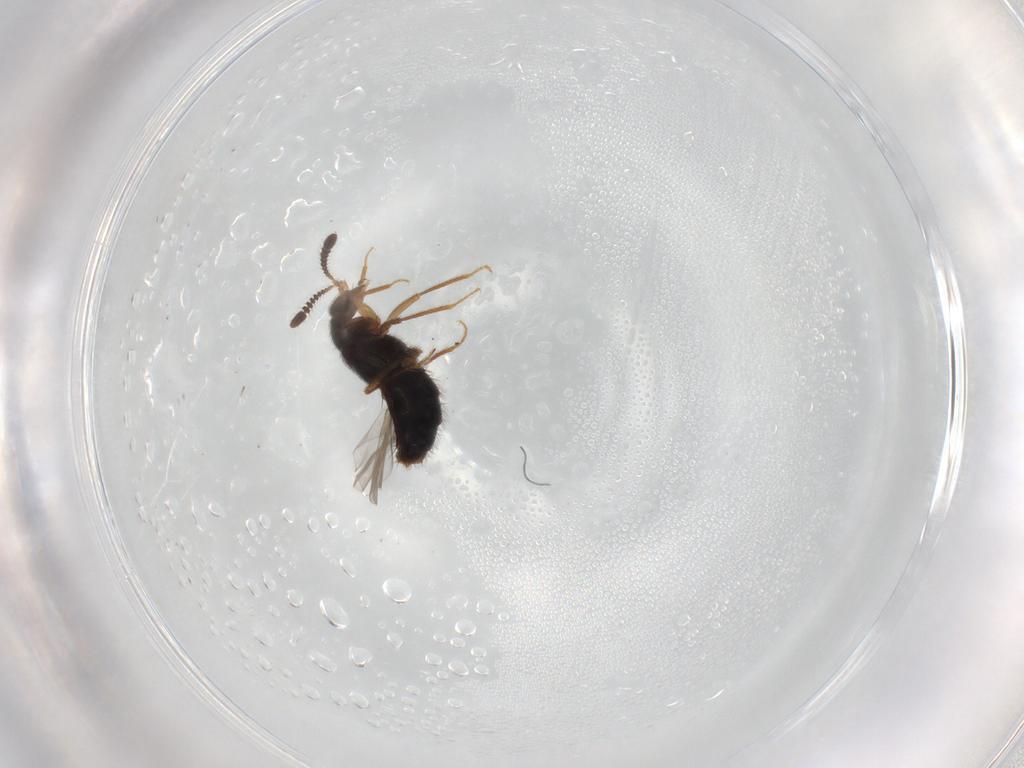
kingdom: Animalia
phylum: Arthropoda
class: Insecta
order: Coleoptera
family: Staphylinidae
